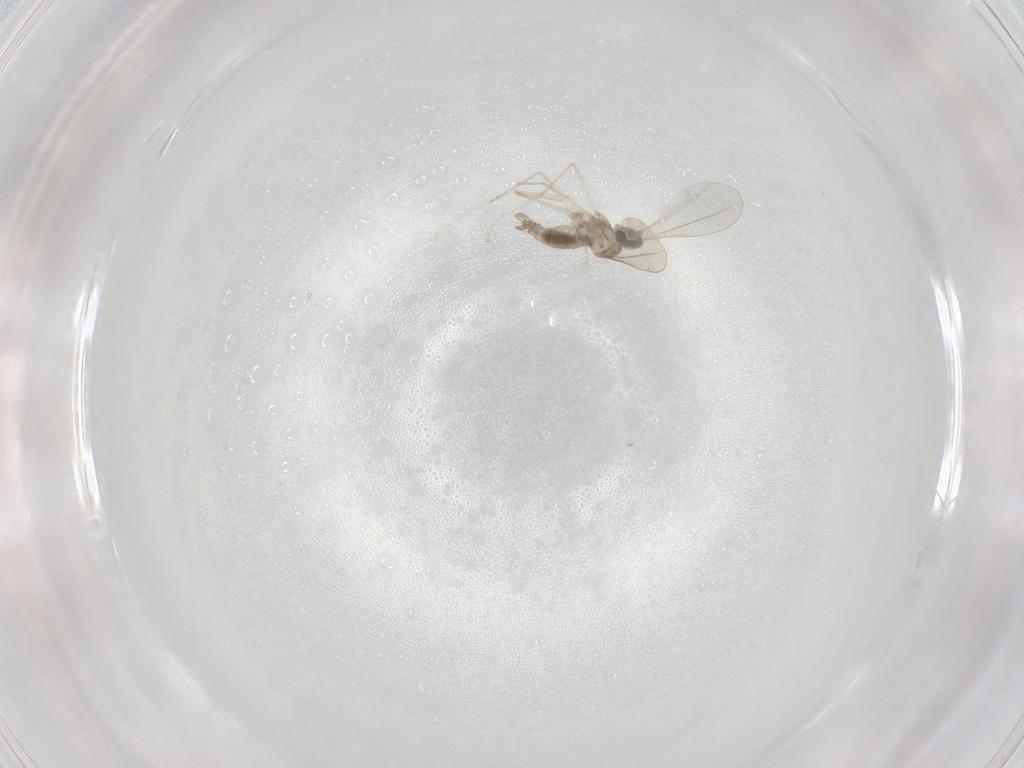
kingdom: Animalia
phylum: Arthropoda
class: Insecta
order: Diptera
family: Cecidomyiidae
